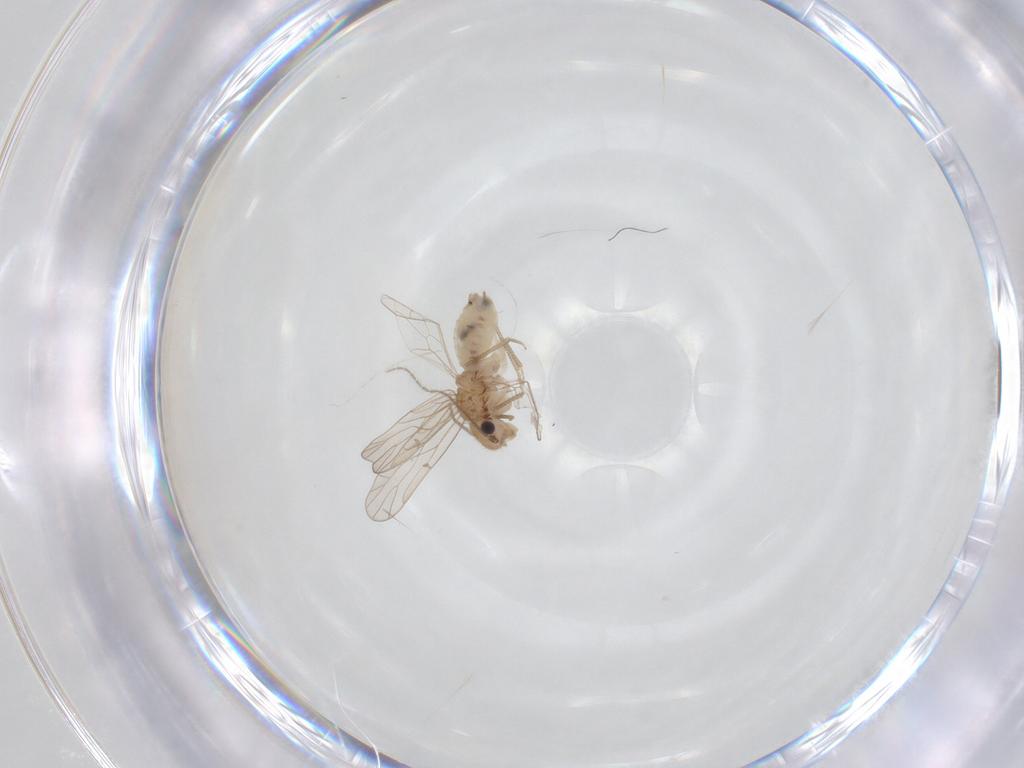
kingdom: Animalia
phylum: Arthropoda
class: Insecta
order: Psocodea
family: Ectopsocidae
